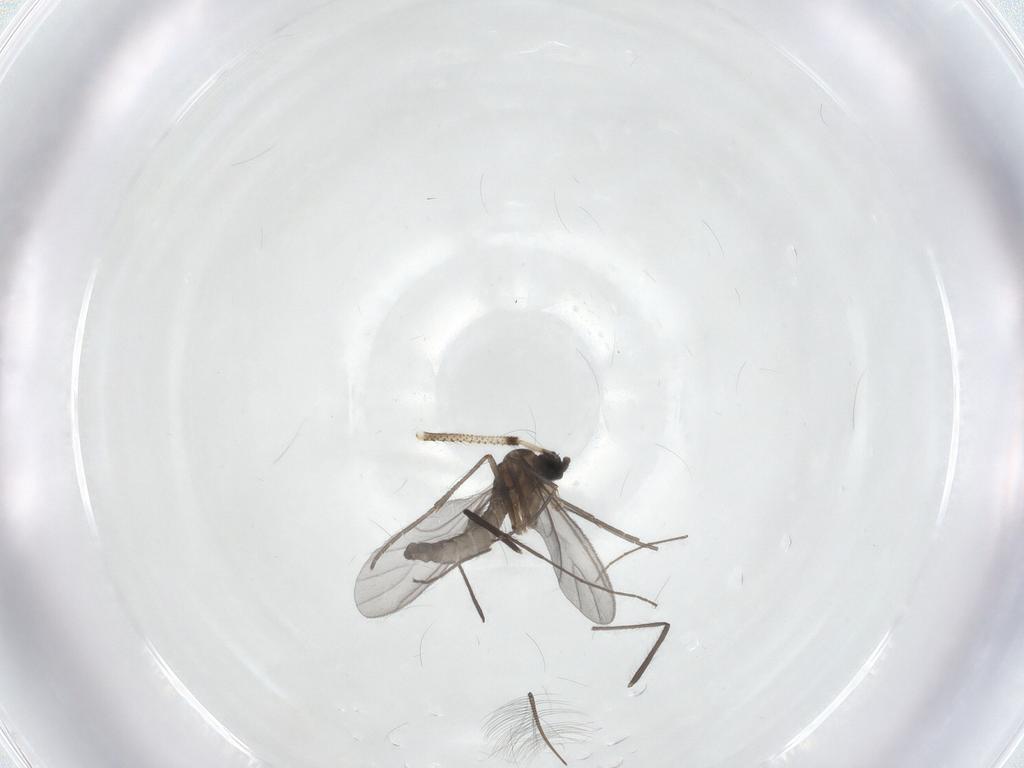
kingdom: Animalia
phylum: Arthropoda
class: Insecta
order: Diptera
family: Sciaridae
